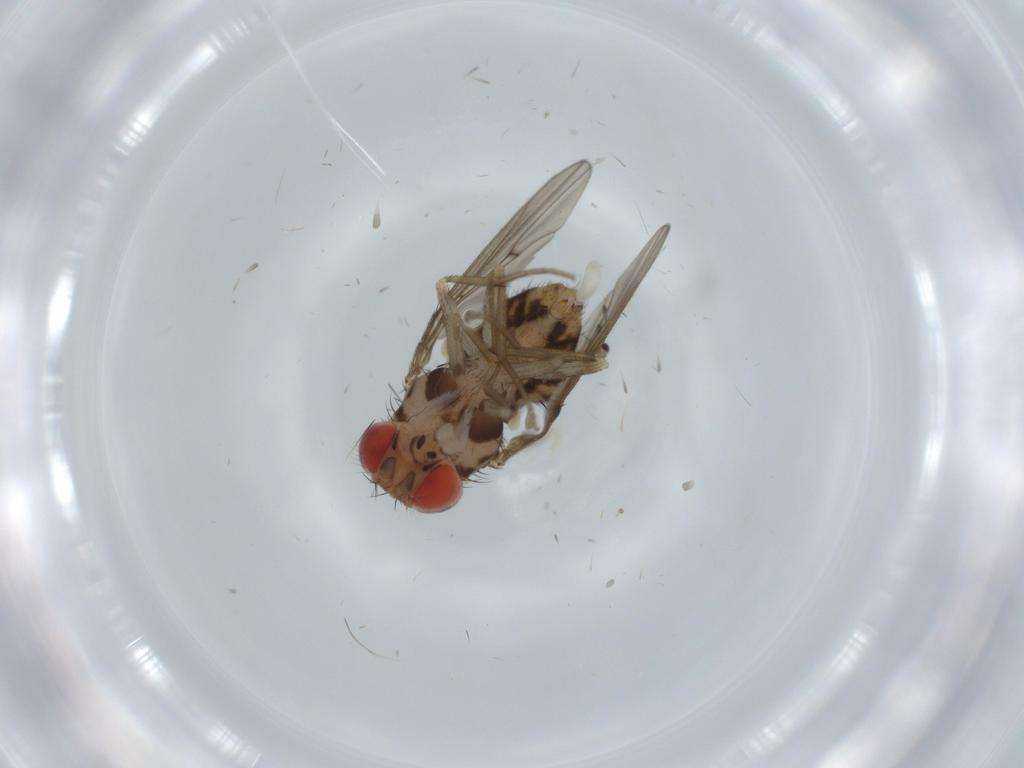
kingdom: Animalia
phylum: Arthropoda
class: Insecta
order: Diptera
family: Drosophilidae
